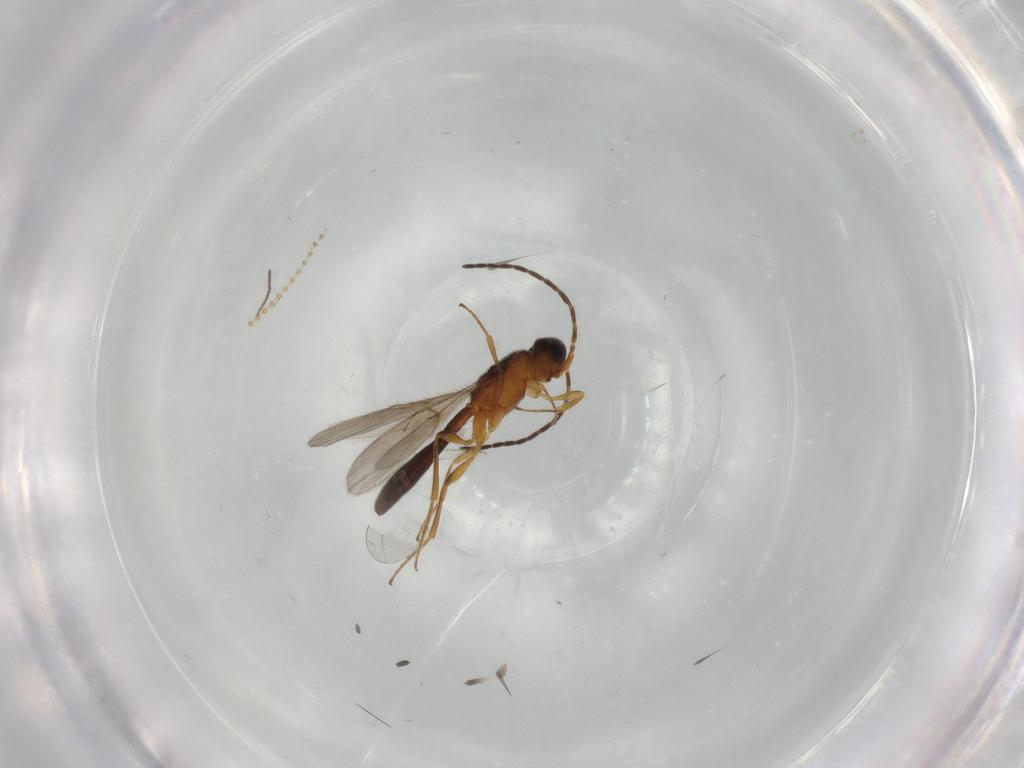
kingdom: Animalia
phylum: Arthropoda
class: Insecta
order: Hymenoptera
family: Scelionidae
